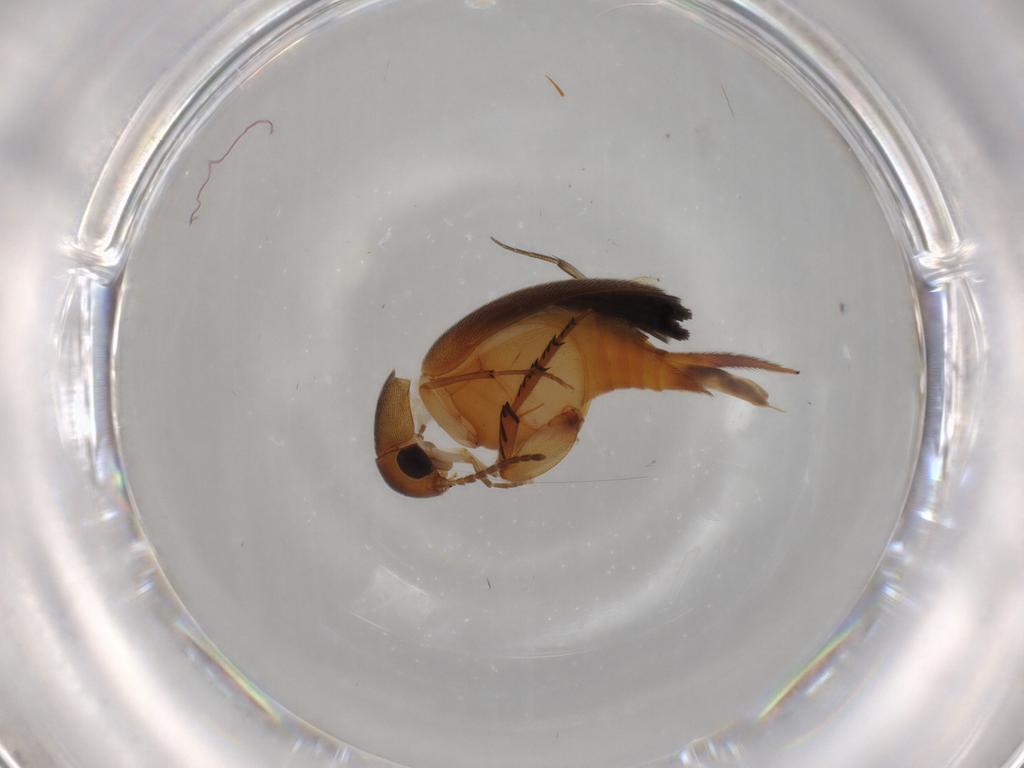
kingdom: Animalia
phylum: Arthropoda
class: Insecta
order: Coleoptera
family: Mordellidae
